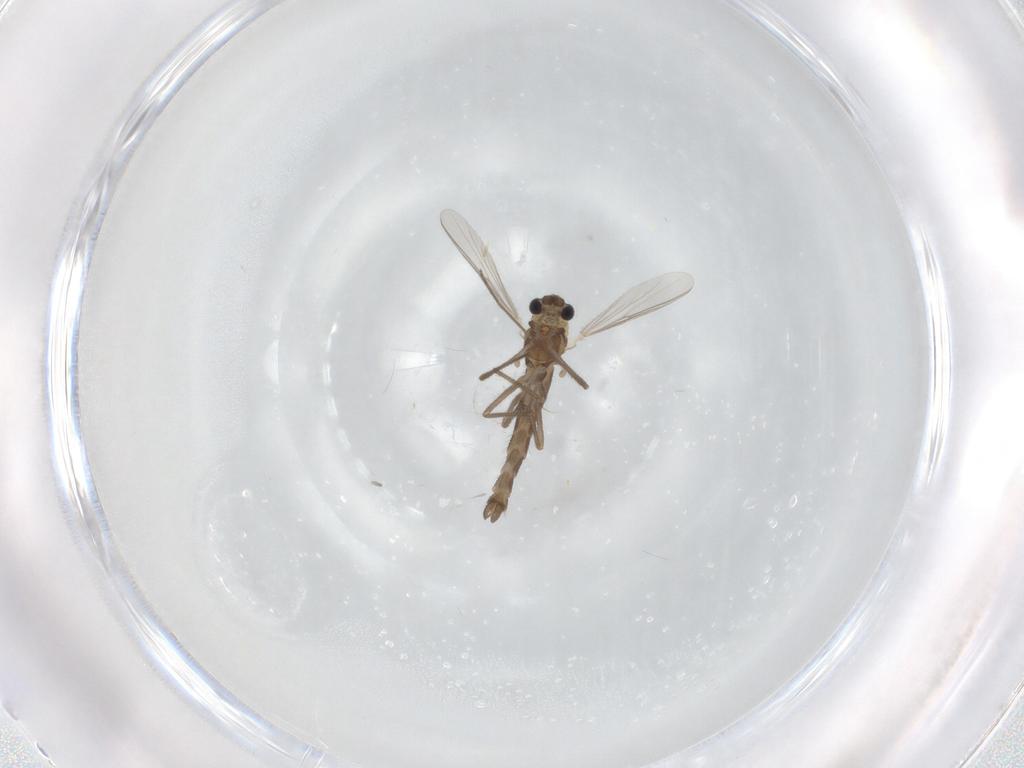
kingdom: Animalia
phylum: Arthropoda
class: Insecta
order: Diptera
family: Chironomidae
